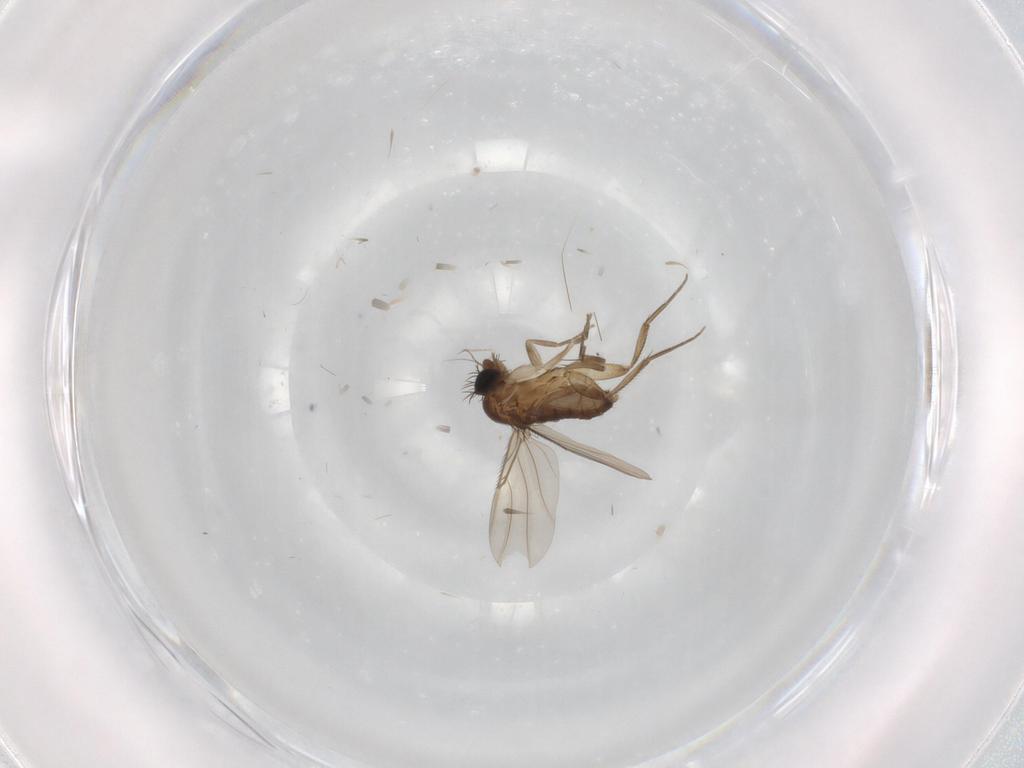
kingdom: Animalia
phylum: Arthropoda
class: Insecta
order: Diptera
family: Phoridae
